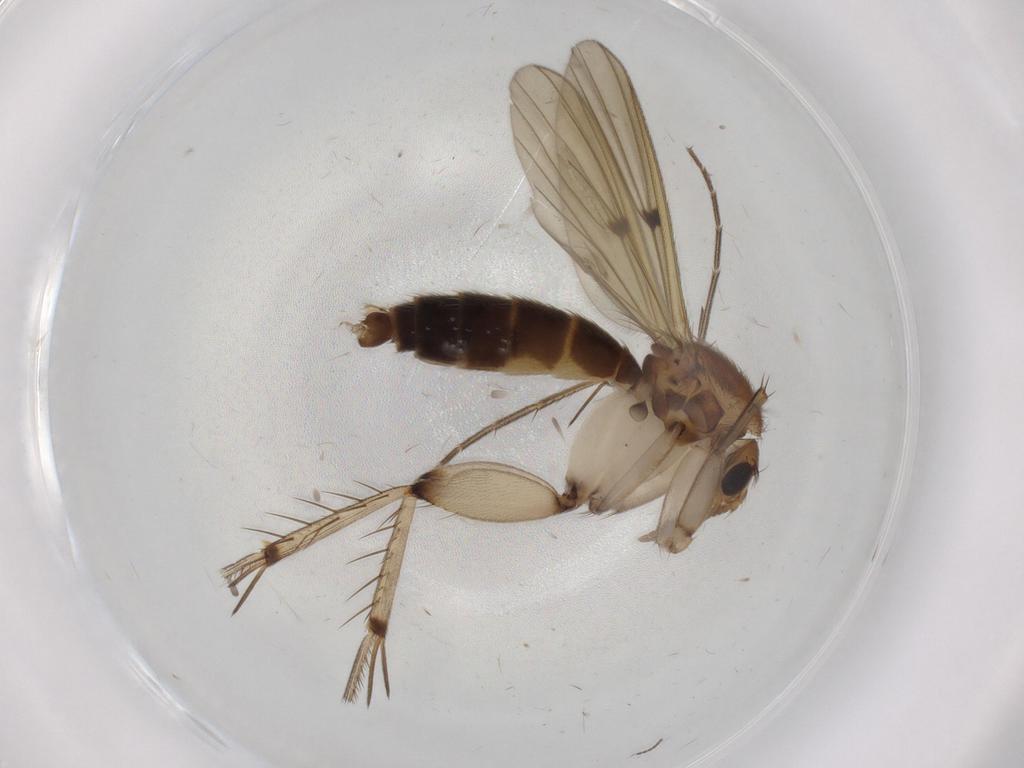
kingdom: Animalia
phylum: Arthropoda
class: Insecta
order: Diptera
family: Mycetophilidae
